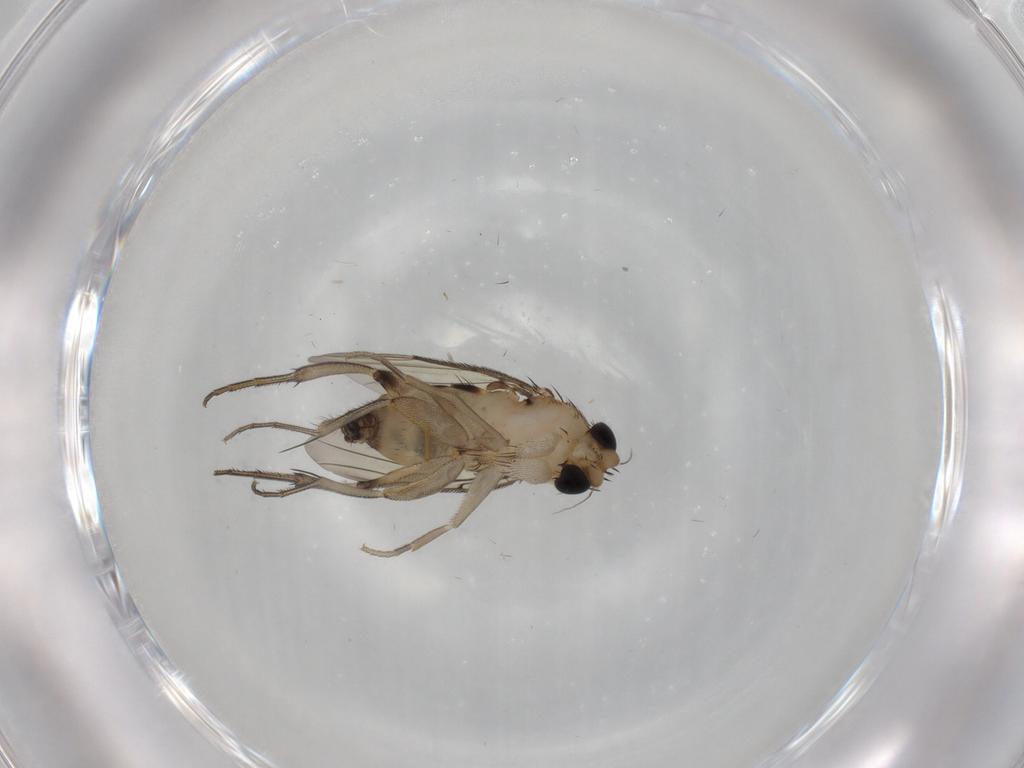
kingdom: Animalia
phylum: Arthropoda
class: Insecta
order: Diptera
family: Phoridae
